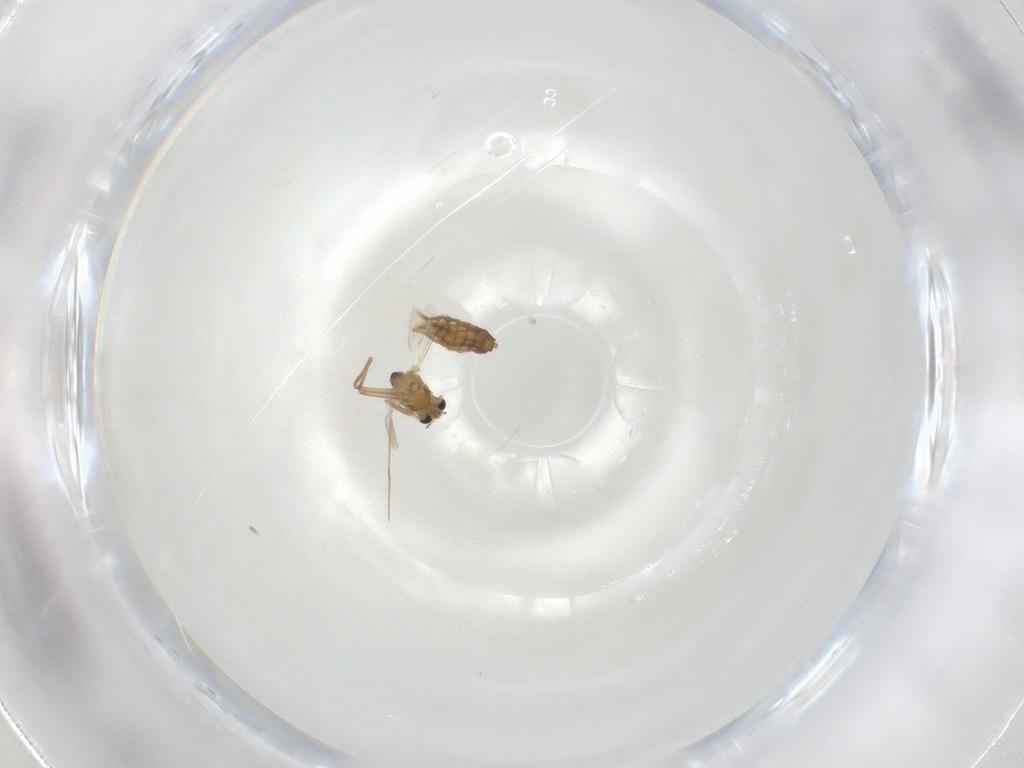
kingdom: Animalia
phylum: Arthropoda
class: Insecta
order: Diptera
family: Chironomidae
